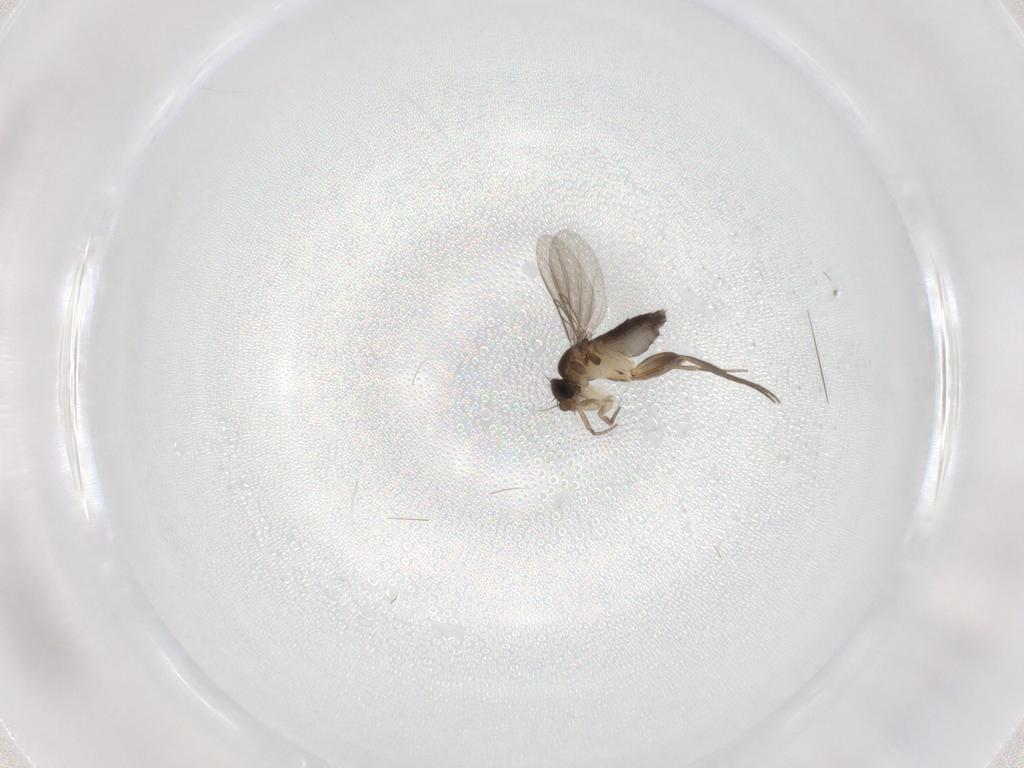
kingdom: Animalia
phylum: Arthropoda
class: Insecta
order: Diptera
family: Phoridae
